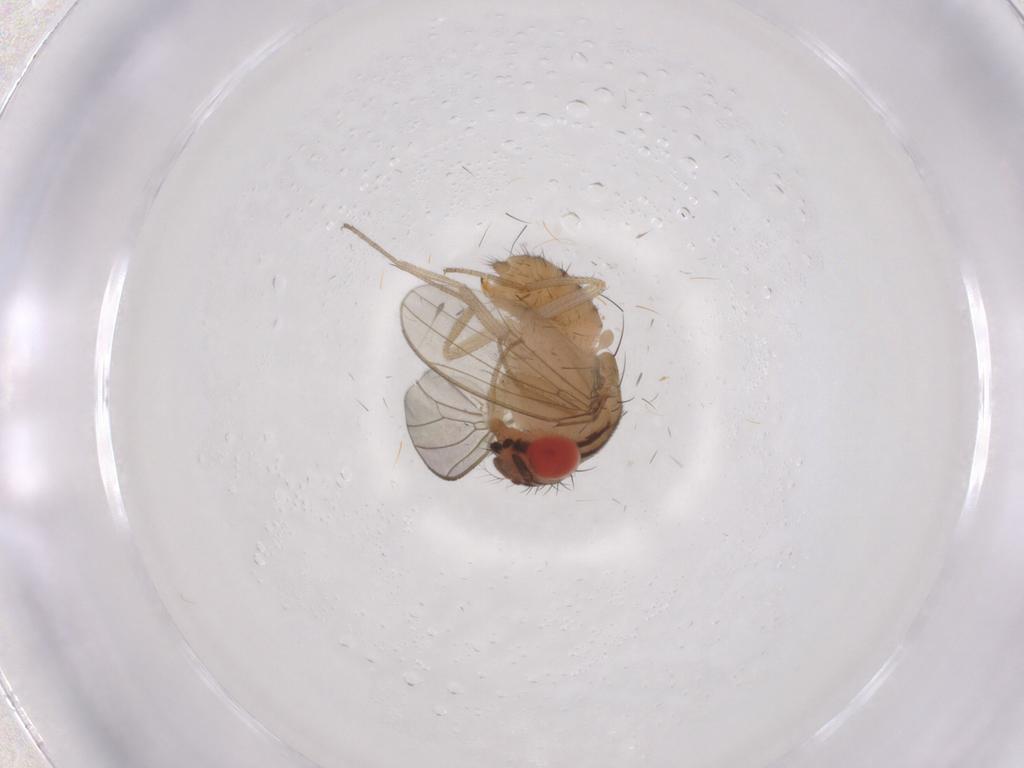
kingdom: Animalia
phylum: Arthropoda
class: Insecta
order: Diptera
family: Drosophilidae
